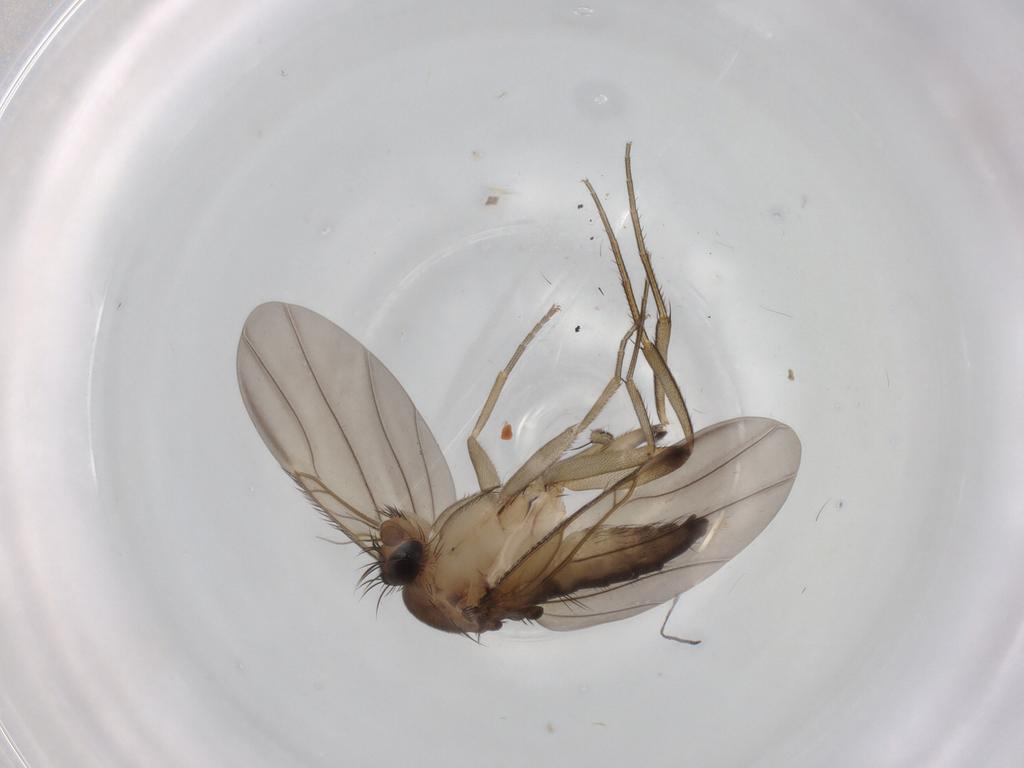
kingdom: Animalia
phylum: Arthropoda
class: Insecta
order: Diptera
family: Phoridae
